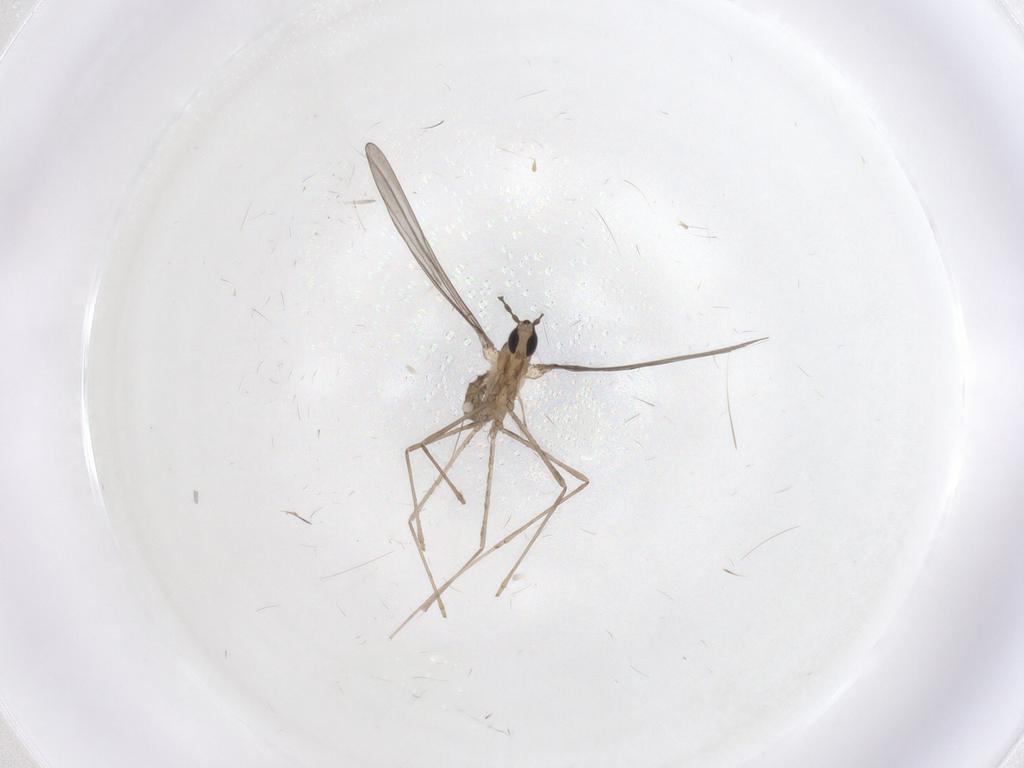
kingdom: Animalia
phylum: Arthropoda
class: Insecta
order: Diptera
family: Cecidomyiidae
